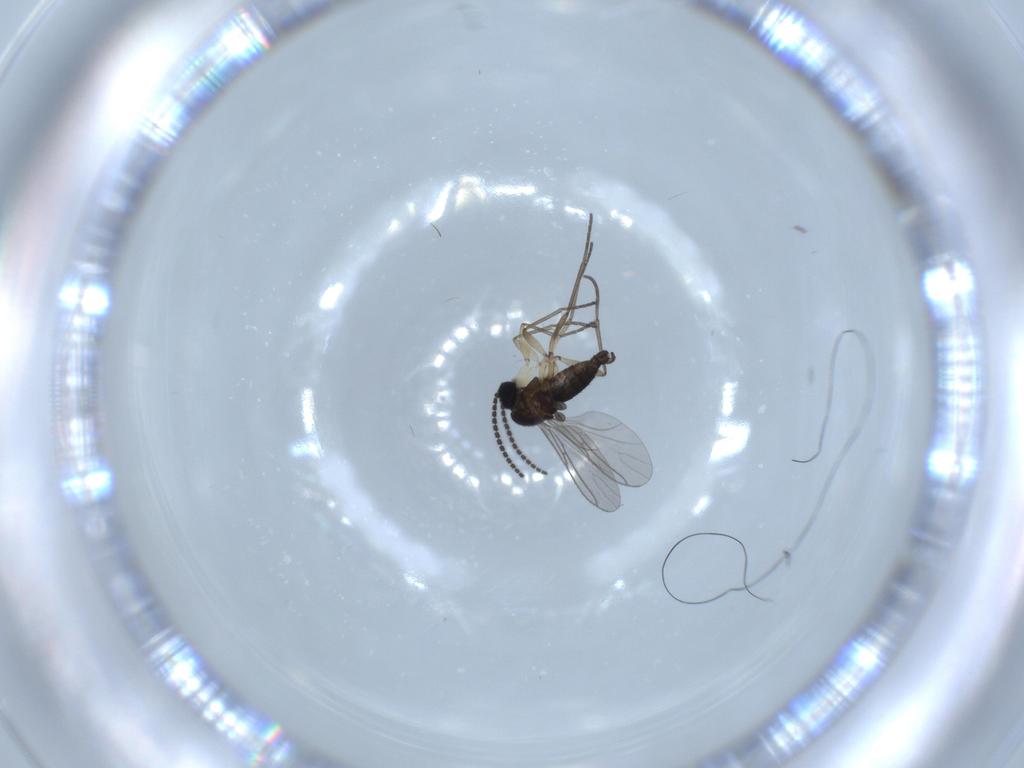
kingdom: Animalia
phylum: Arthropoda
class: Insecta
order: Diptera
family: Sciaridae
